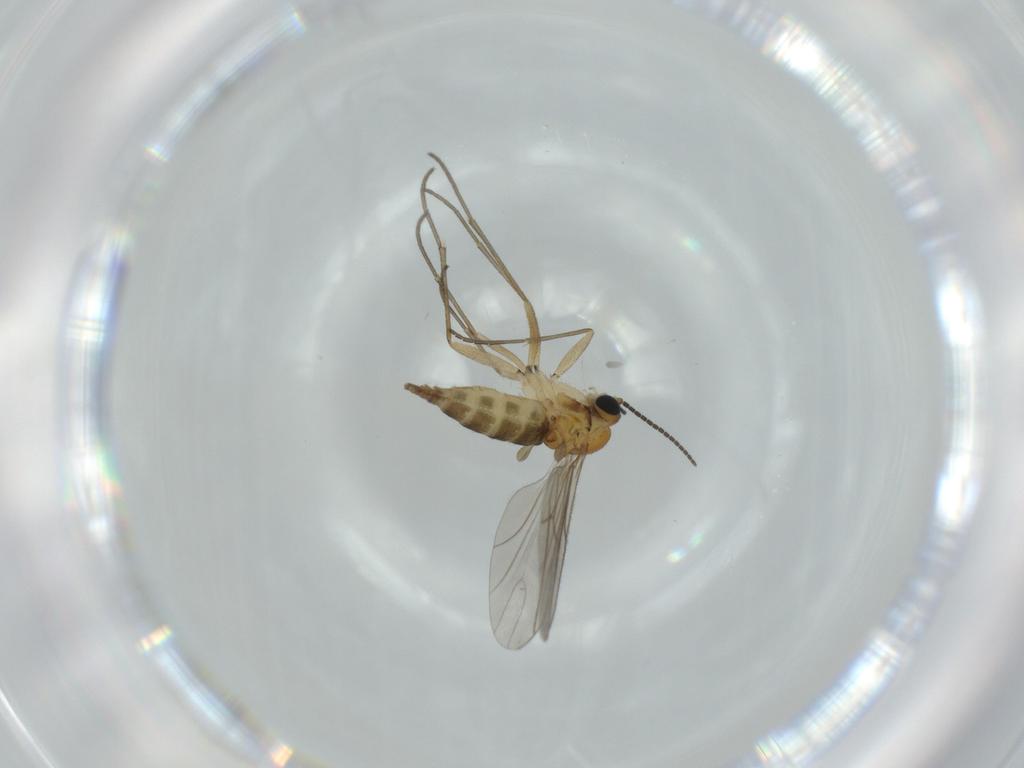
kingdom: Animalia
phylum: Arthropoda
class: Insecta
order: Diptera
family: Sciaridae
